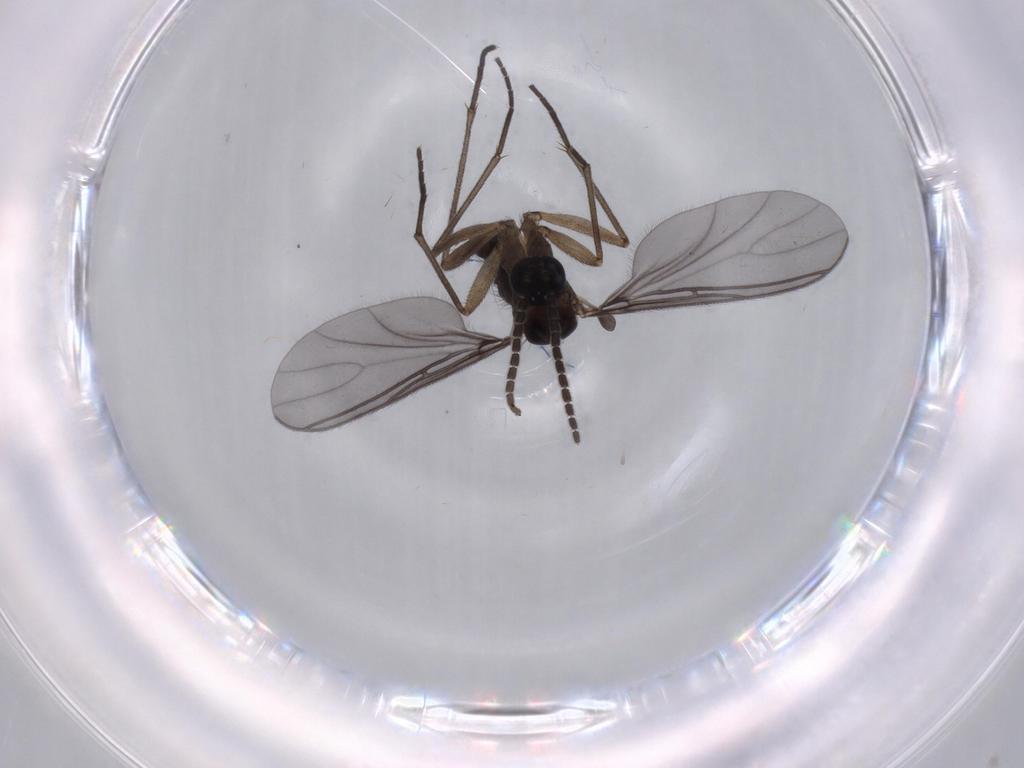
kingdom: Animalia
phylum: Arthropoda
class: Insecta
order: Diptera
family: Sciaridae
